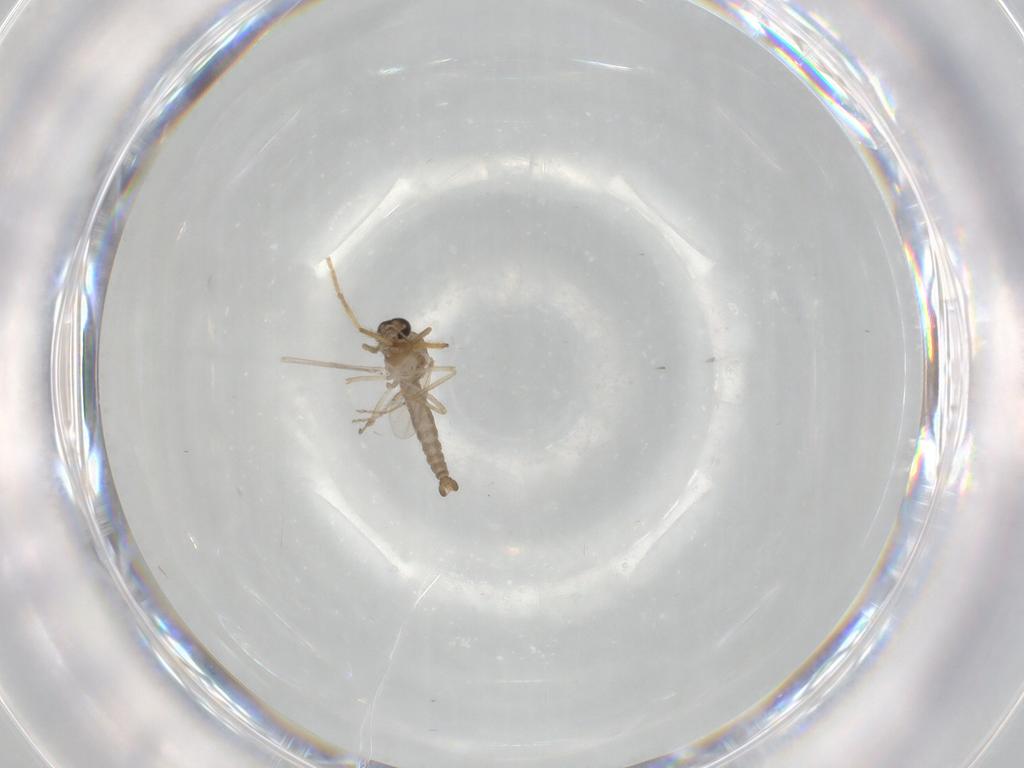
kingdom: Animalia
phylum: Arthropoda
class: Insecta
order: Diptera
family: Ceratopogonidae
